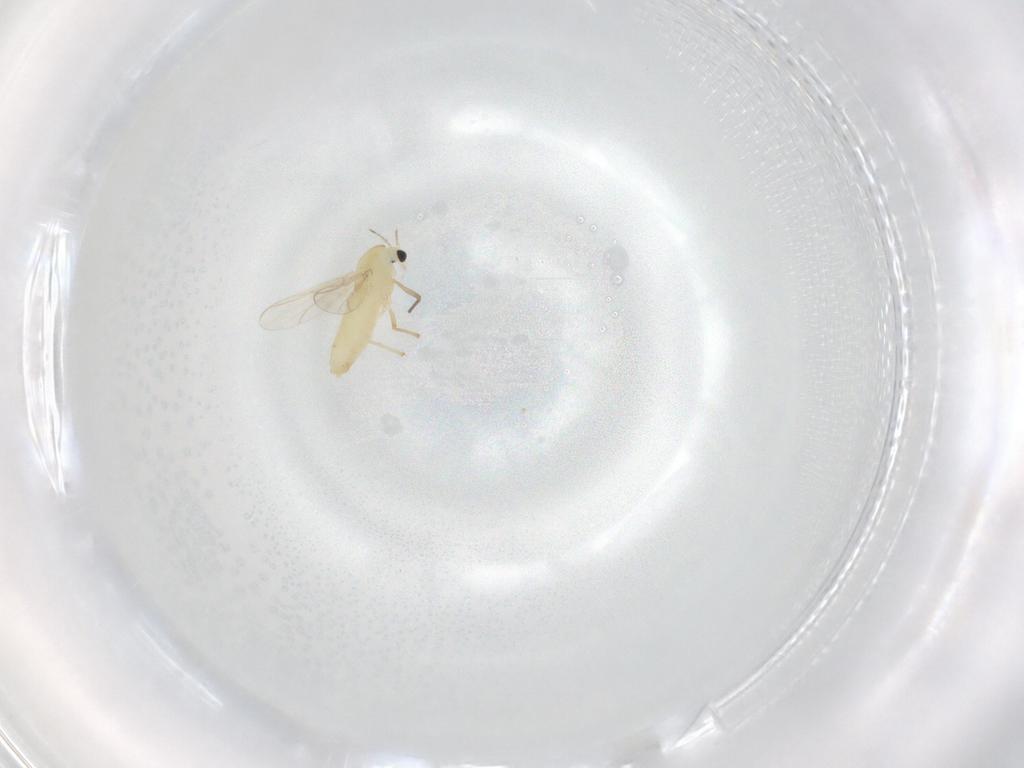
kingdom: Animalia
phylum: Arthropoda
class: Insecta
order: Diptera
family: Chironomidae
